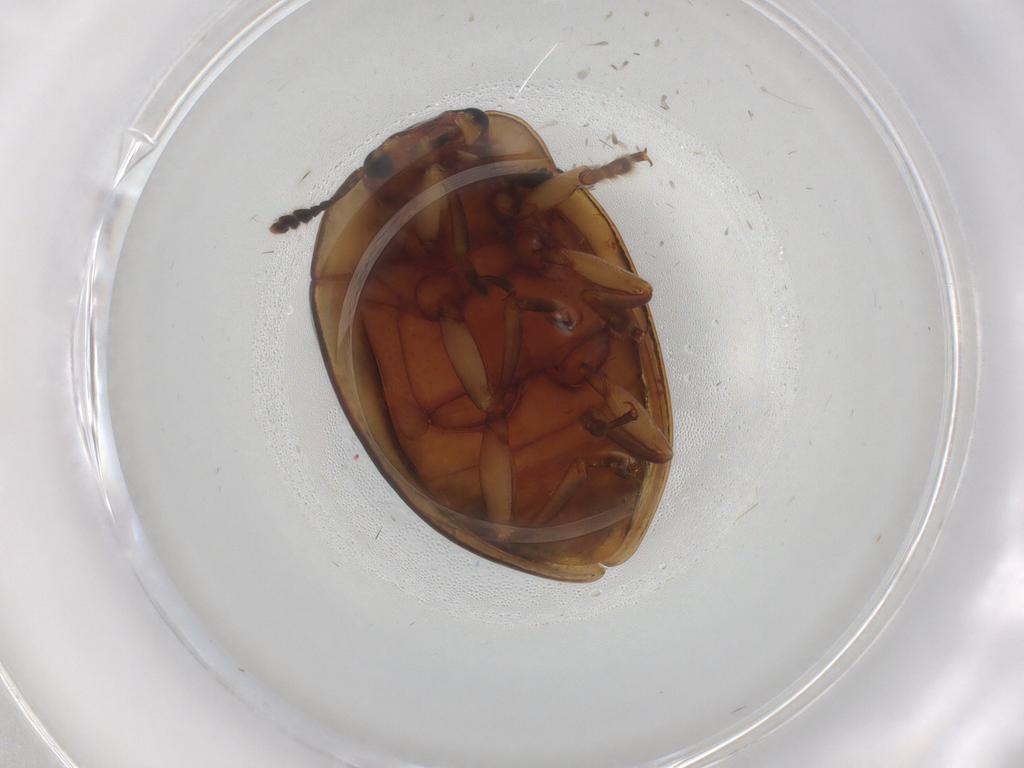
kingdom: Animalia
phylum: Arthropoda
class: Insecta
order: Coleoptera
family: Erotylidae
